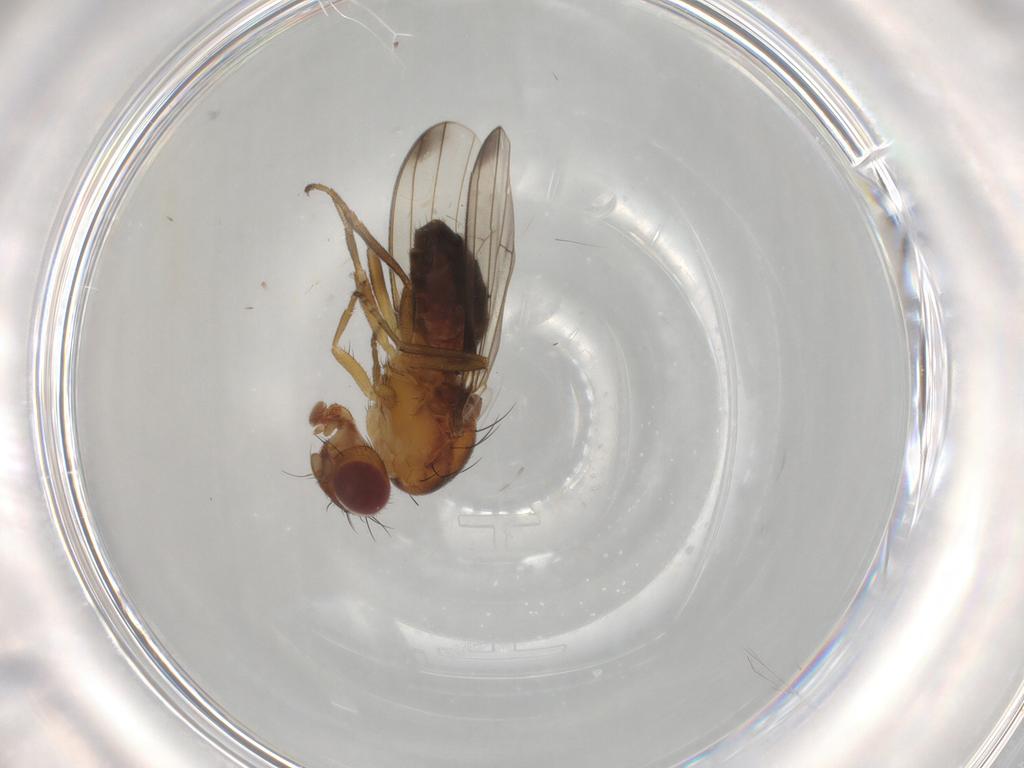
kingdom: Animalia
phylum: Arthropoda
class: Insecta
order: Diptera
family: Piophilidae
